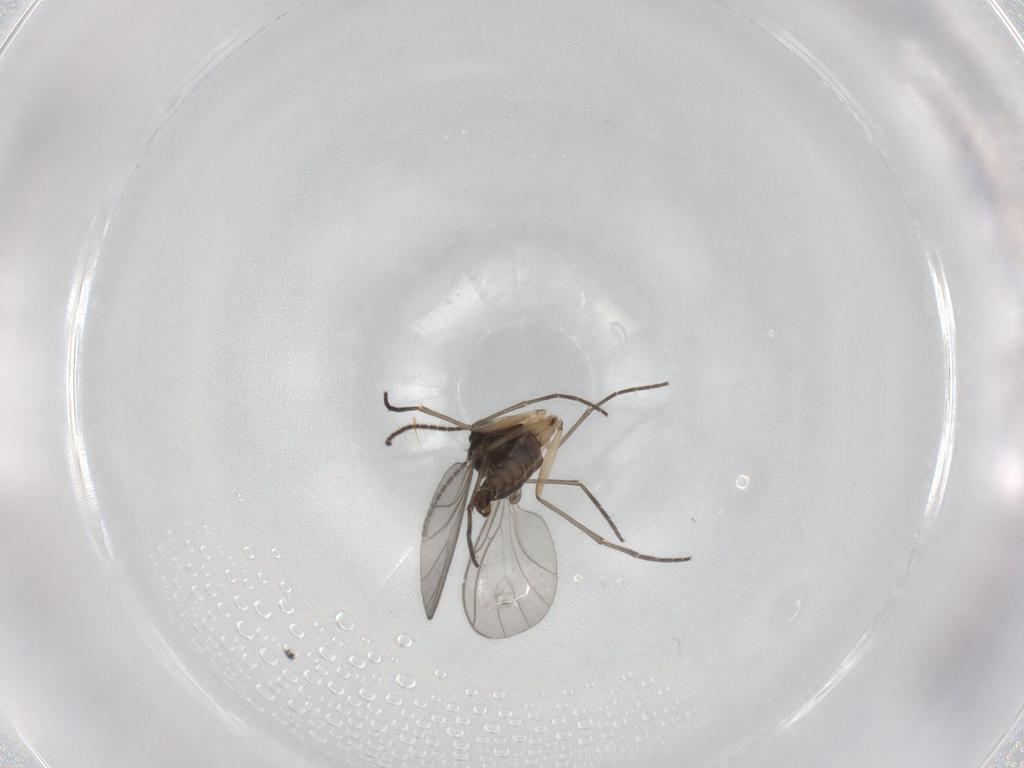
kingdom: Animalia
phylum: Arthropoda
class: Insecta
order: Diptera
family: Sciaridae
